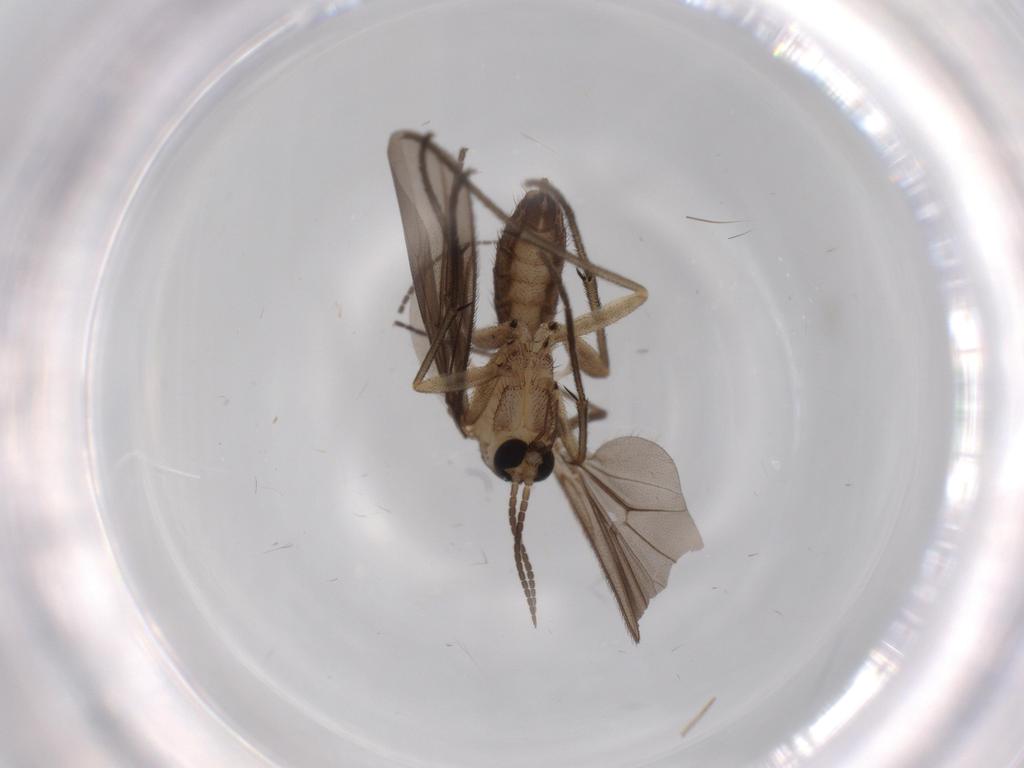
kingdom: Animalia
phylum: Arthropoda
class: Insecta
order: Diptera
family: Milichiidae
